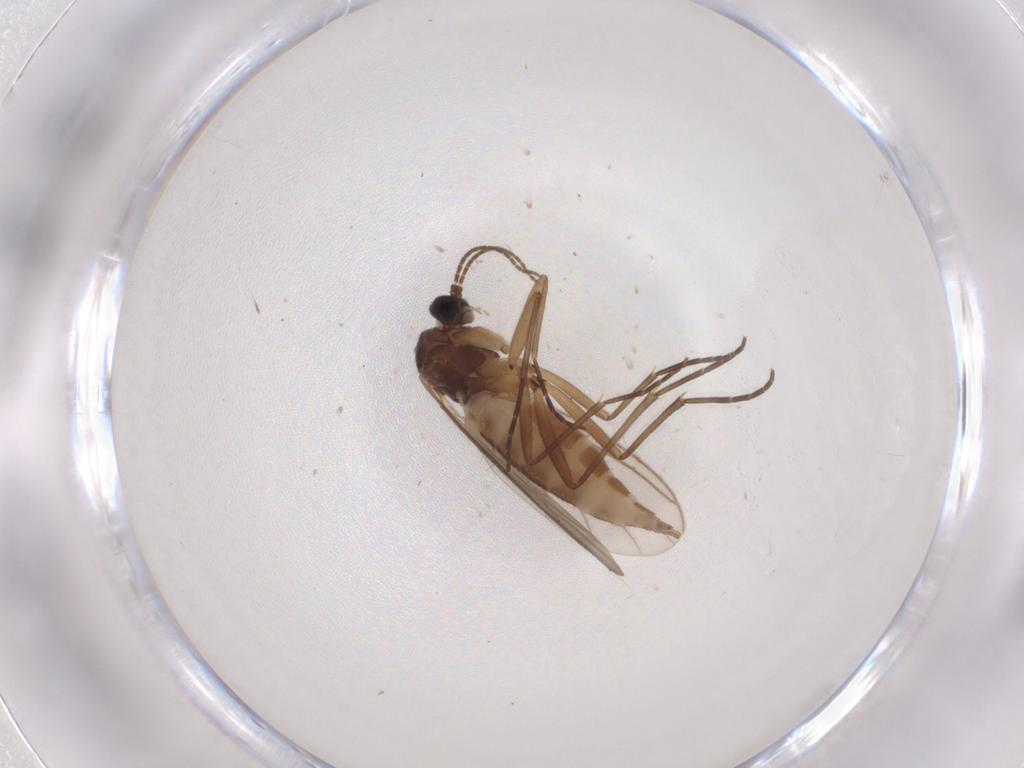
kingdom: Animalia
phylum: Arthropoda
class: Insecta
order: Diptera
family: Sciaridae
